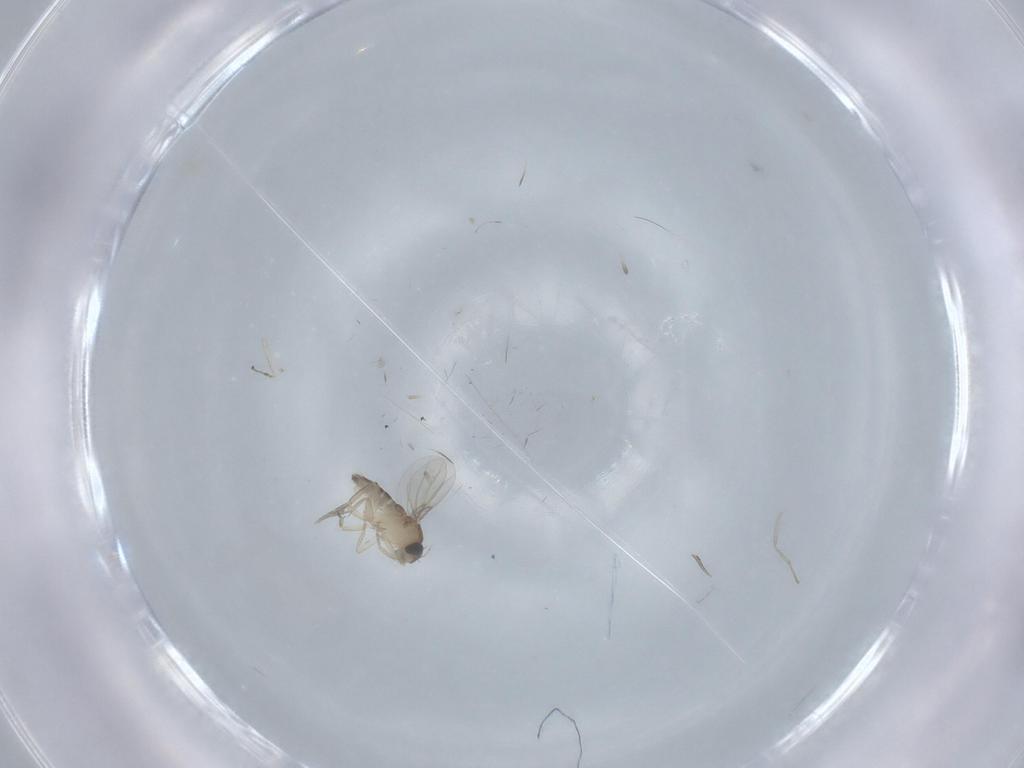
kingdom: Animalia
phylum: Arthropoda
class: Insecta
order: Diptera
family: Phoridae
